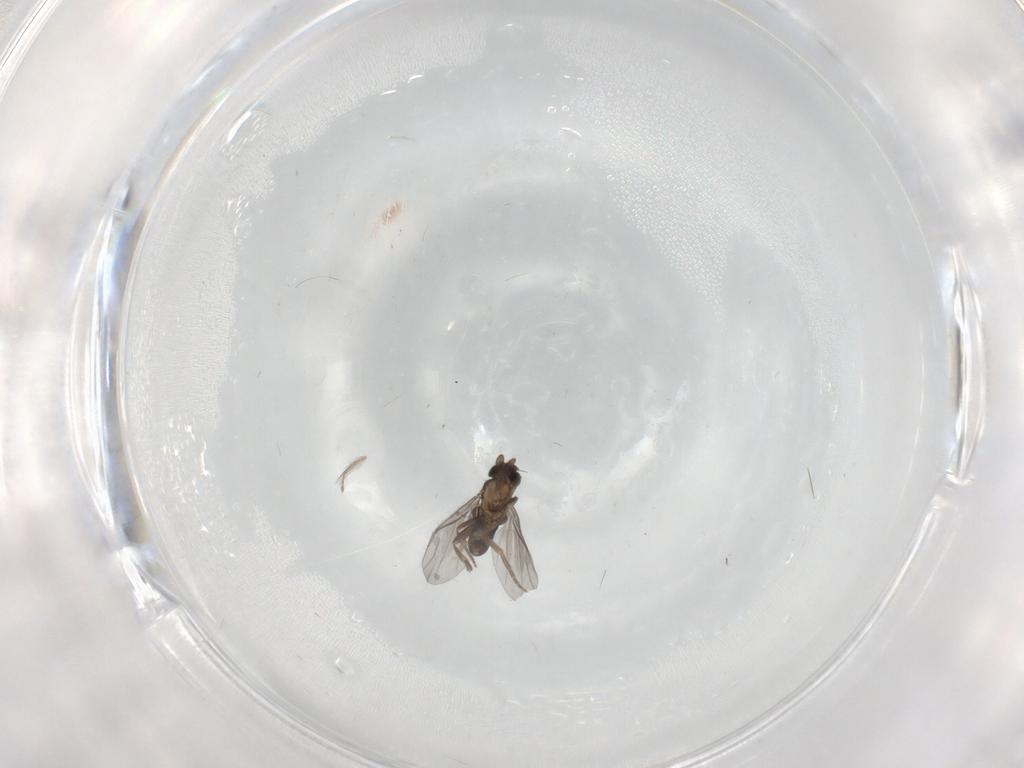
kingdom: Animalia
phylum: Arthropoda
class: Insecta
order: Diptera
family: Ceratopogonidae
